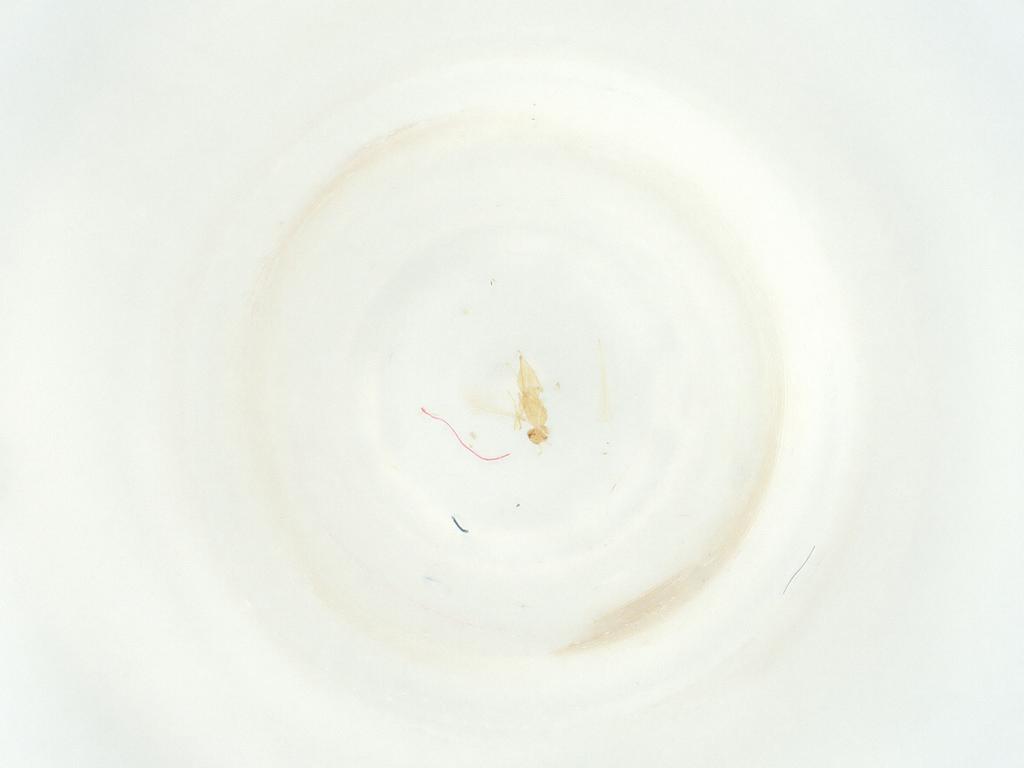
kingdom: Animalia
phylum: Arthropoda
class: Insecta
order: Hymenoptera
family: Mymaridae
